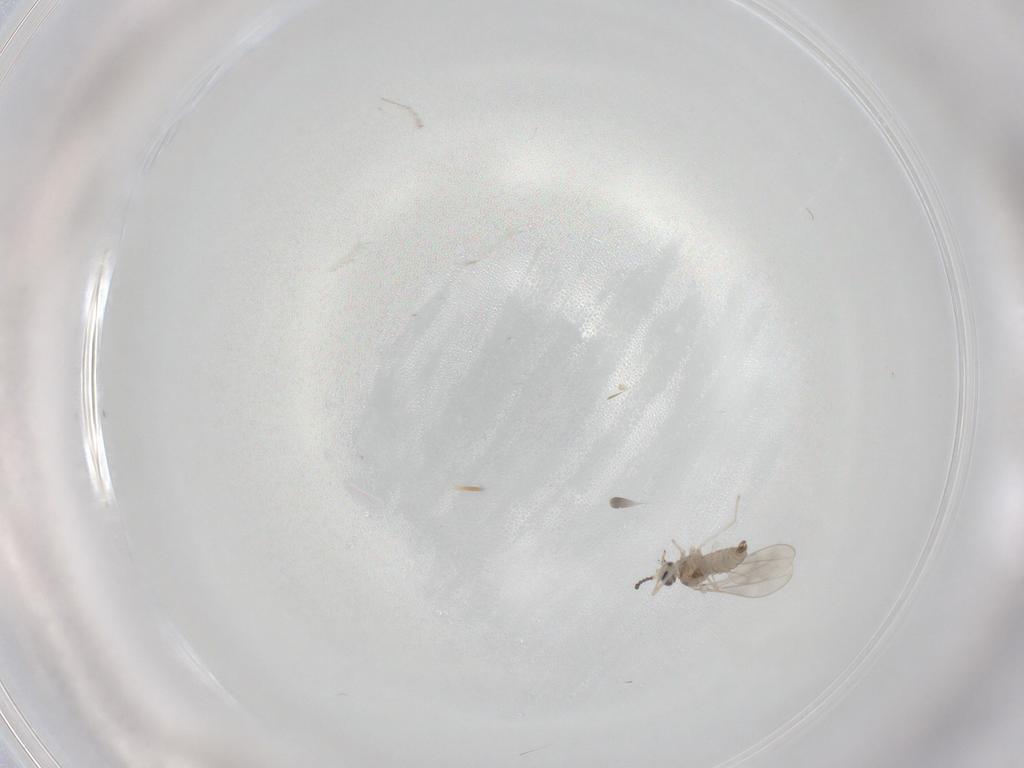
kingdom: Animalia
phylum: Arthropoda
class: Insecta
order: Diptera
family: Cecidomyiidae
